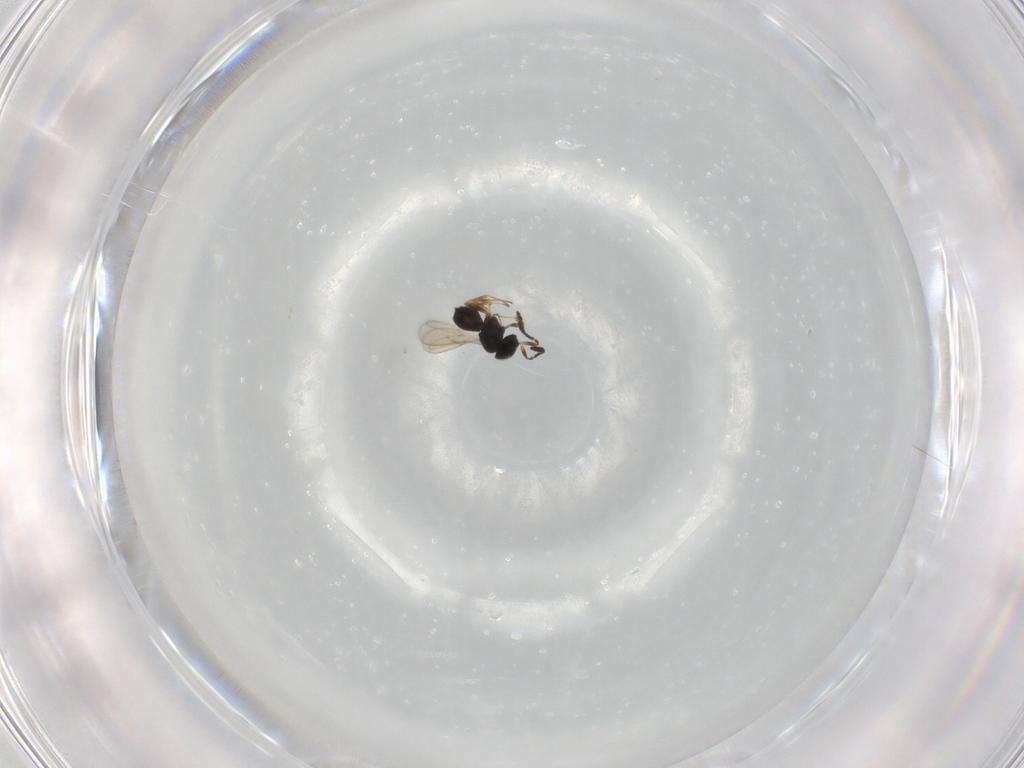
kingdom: Animalia
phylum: Arthropoda
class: Insecta
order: Hymenoptera
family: Scelionidae
